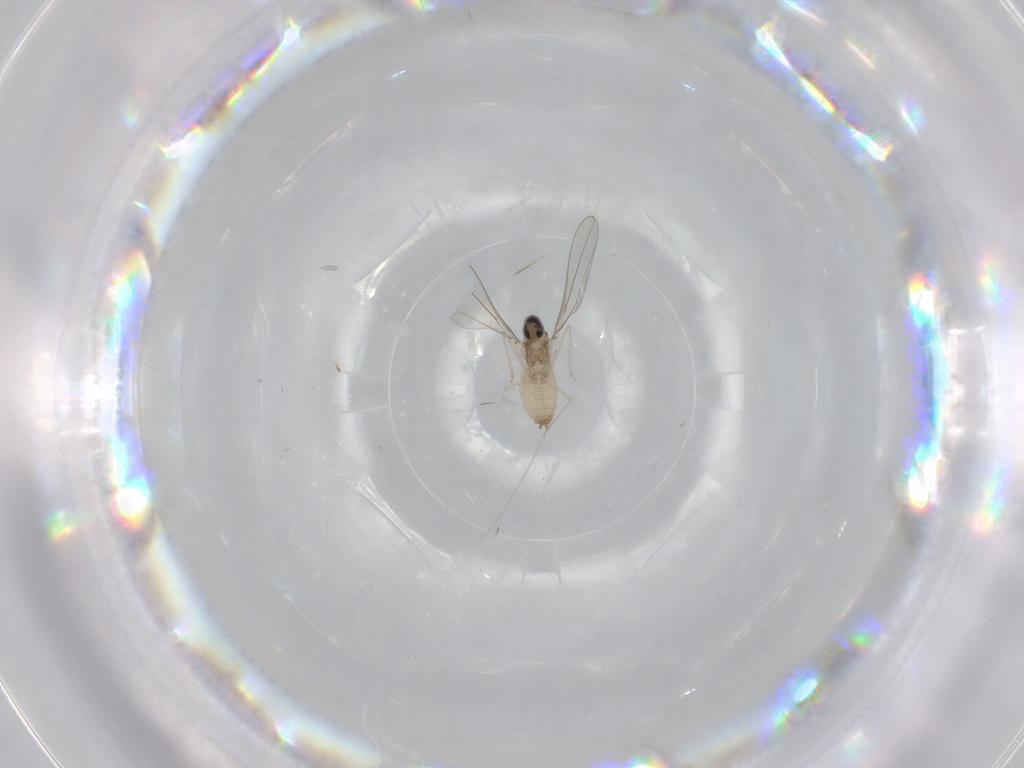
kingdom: Animalia
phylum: Arthropoda
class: Insecta
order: Diptera
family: Cecidomyiidae
